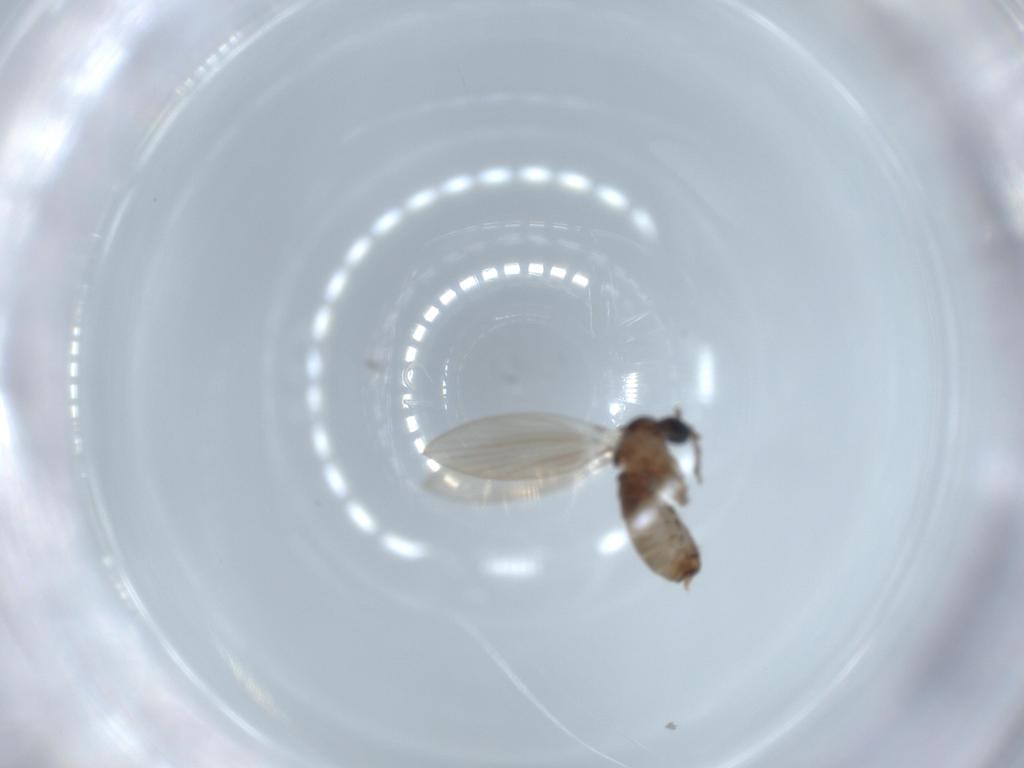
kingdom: Animalia
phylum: Arthropoda
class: Insecta
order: Diptera
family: Psychodidae
